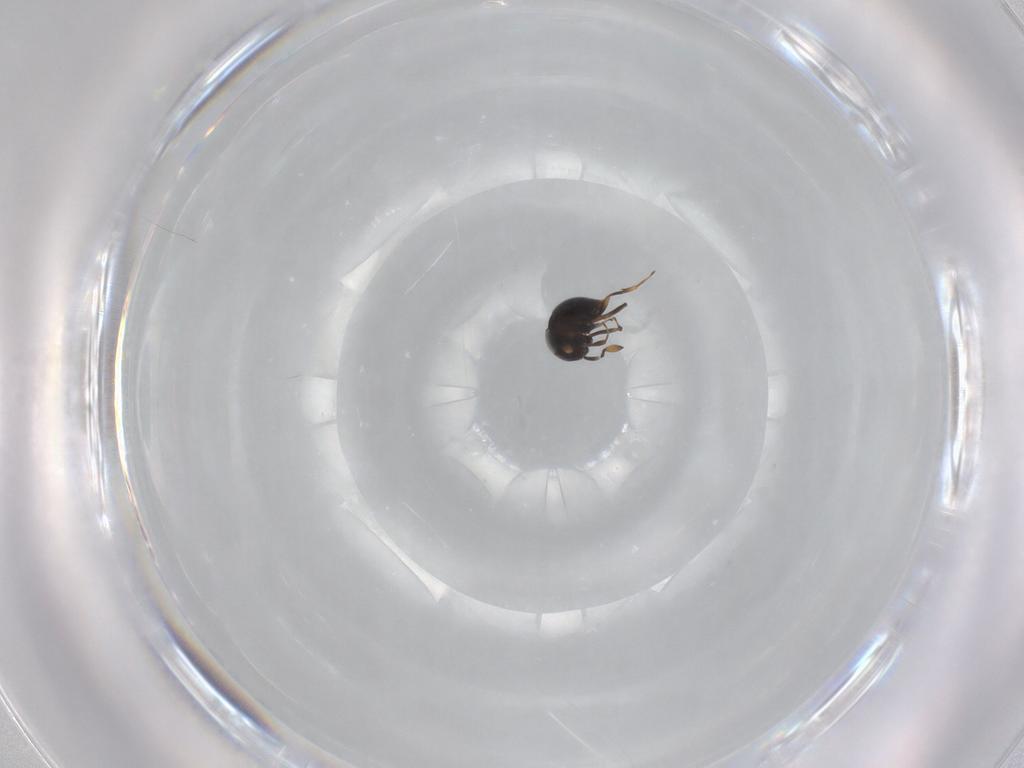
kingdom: Animalia
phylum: Arthropoda
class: Insecta
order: Hymenoptera
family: Scelionidae
